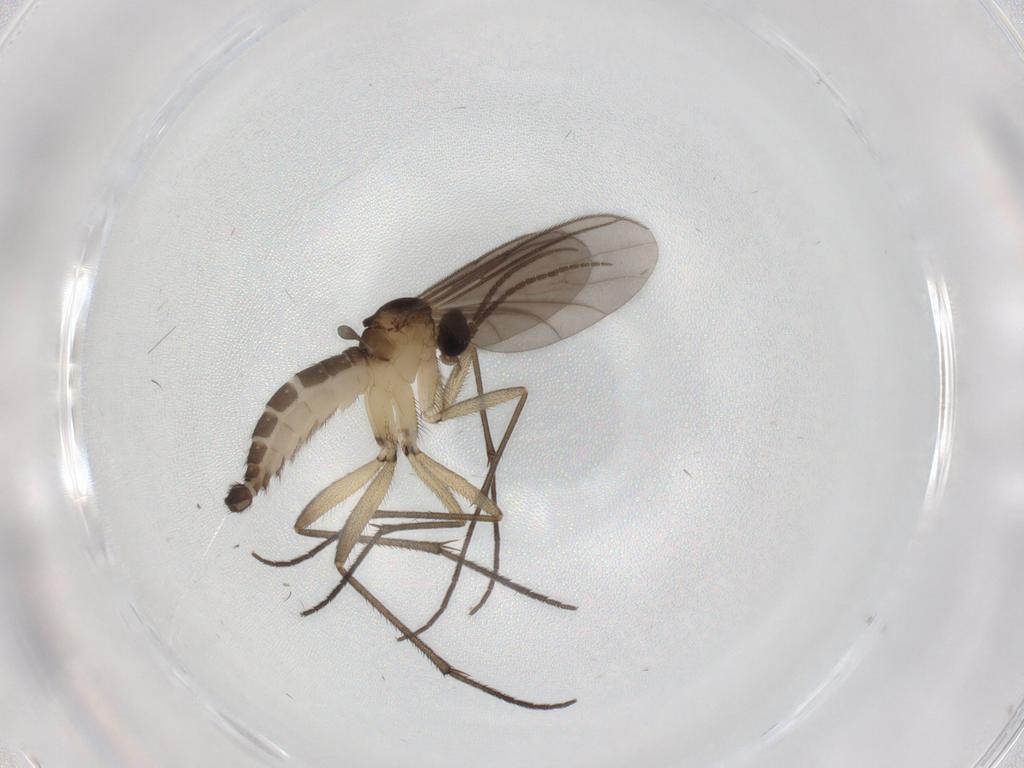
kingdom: Animalia
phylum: Arthropoda
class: Insecta
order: Diptera
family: Sciaridae
